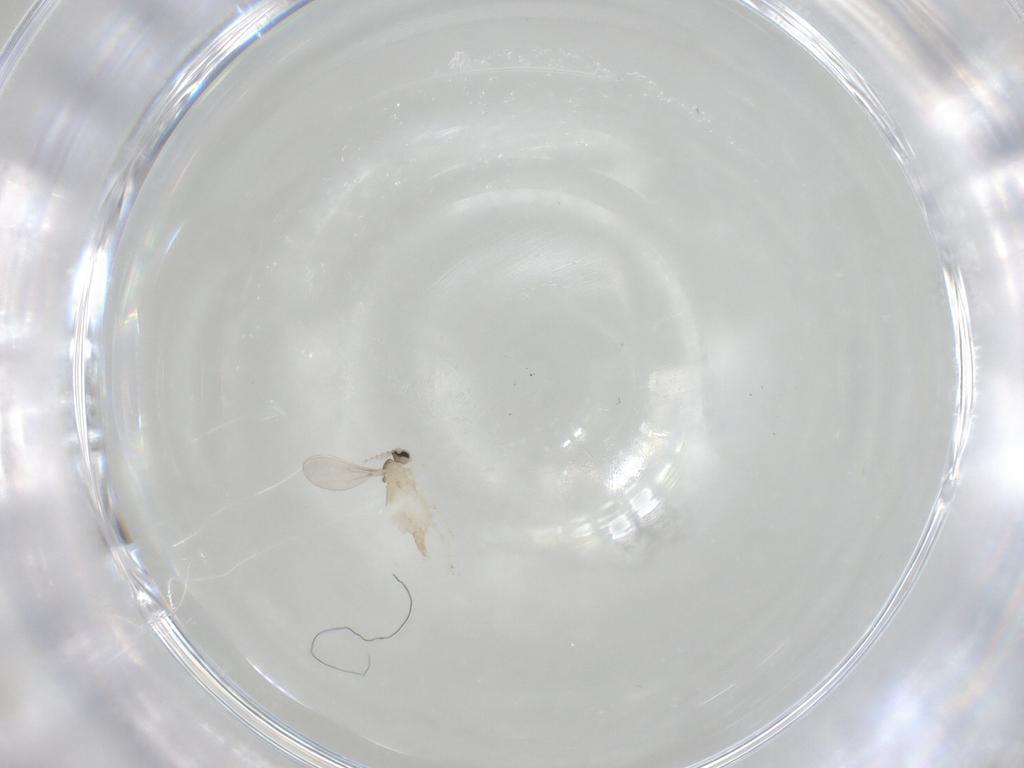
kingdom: Animalia
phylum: Arthropoda
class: Insecta
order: Diptera
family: Cecidomyiidae
